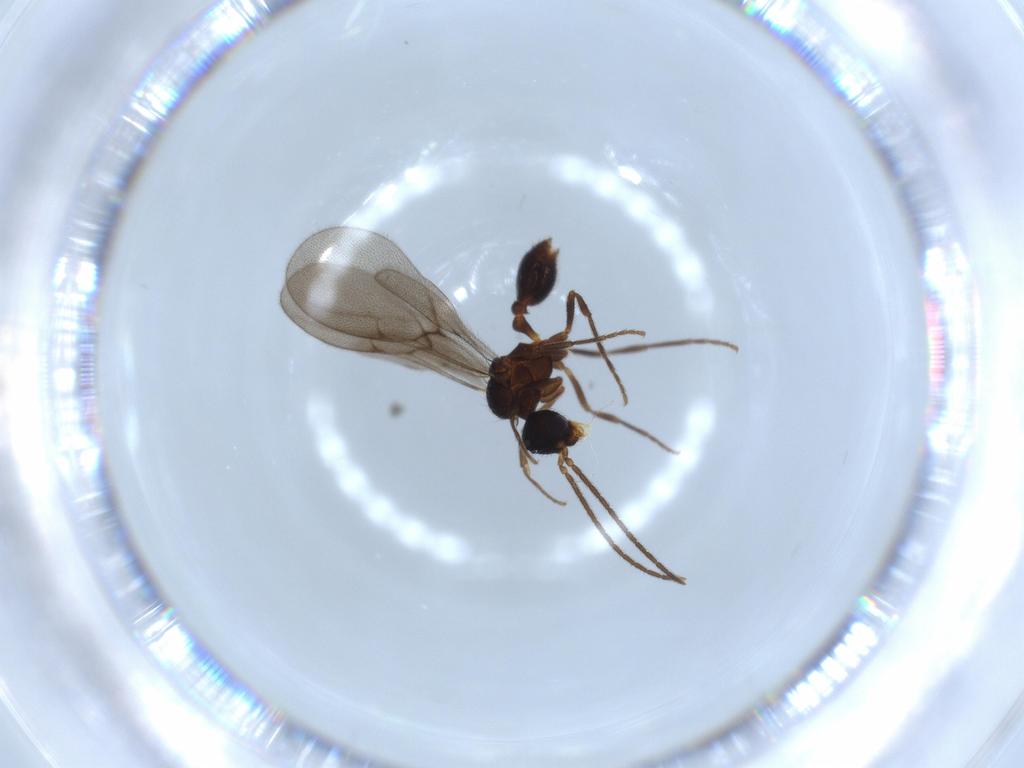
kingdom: Animalia
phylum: Arthropoda
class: Insecta
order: Hymenoptera
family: Formicidae
